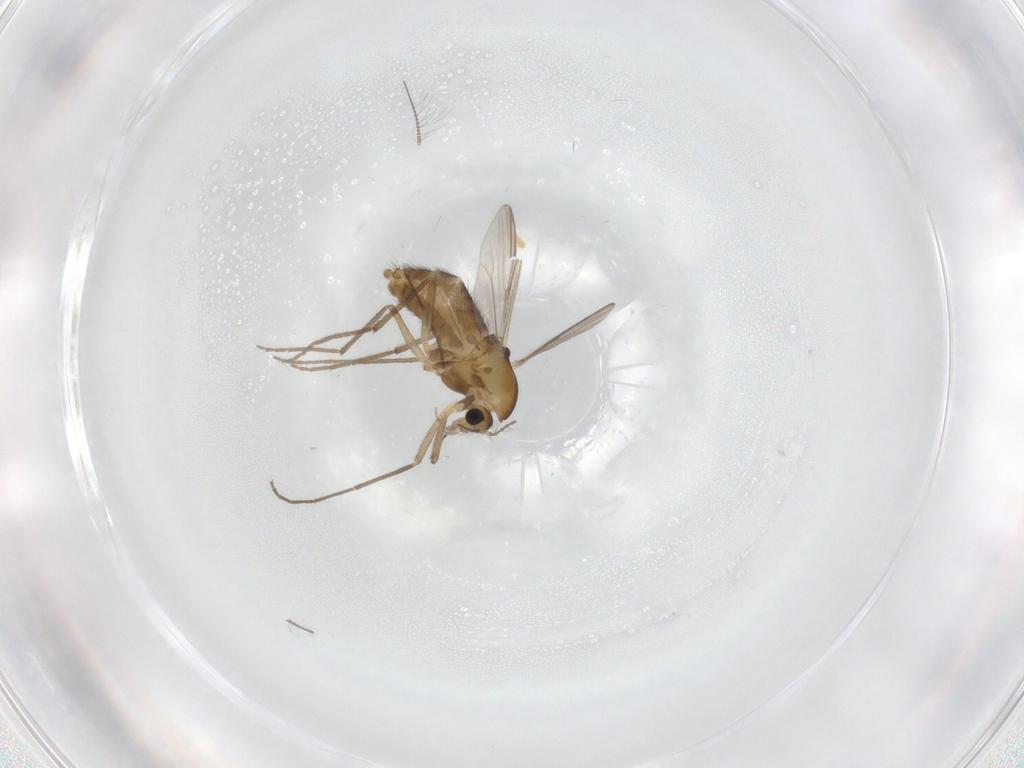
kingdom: Animalia
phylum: Arthropoda
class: Insecta
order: Diptera
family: Chironomidae
